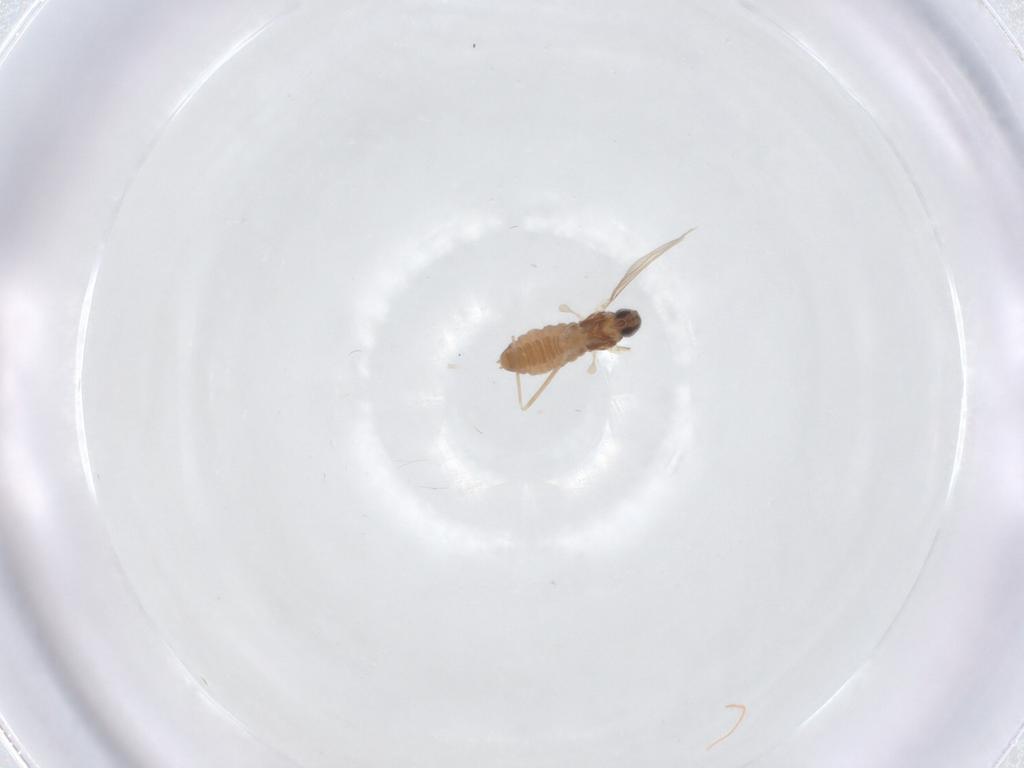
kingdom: Animalia
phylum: Arthropoda
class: Insecta
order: Diptera
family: Cecidomyiidae
